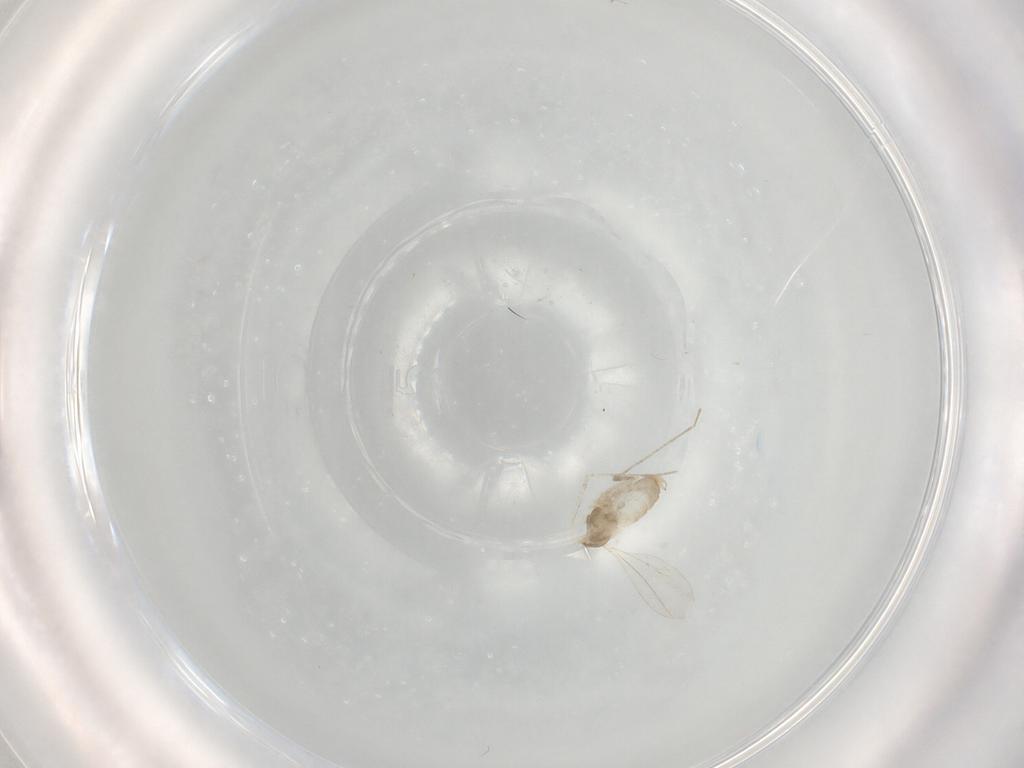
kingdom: Animalia
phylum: Arthropoda
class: Insecta
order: Diptera
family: Cecidomyiidae
